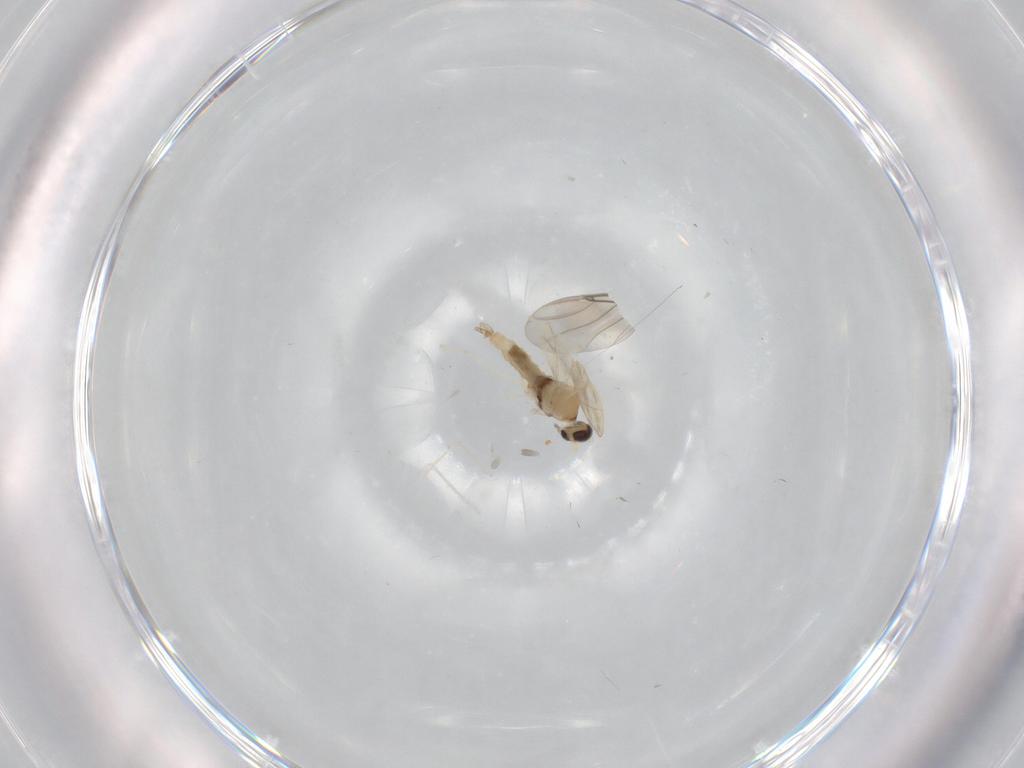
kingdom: Animalia
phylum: Arthropoda
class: Insecta
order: Diptera
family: Cecidomyiidae
